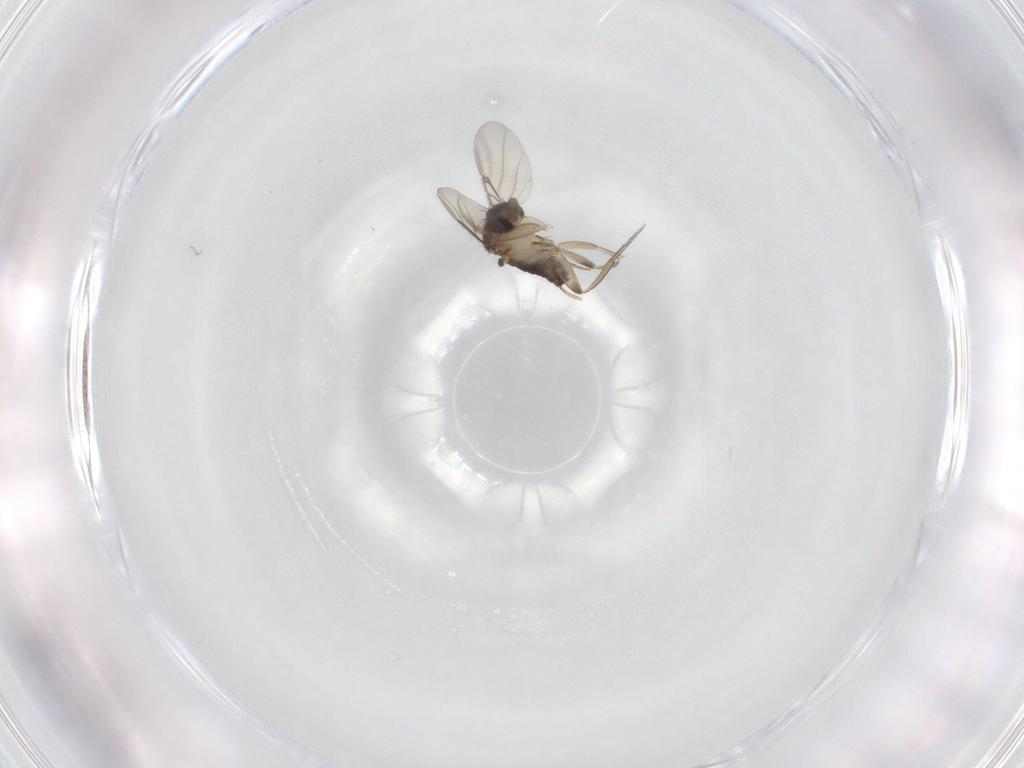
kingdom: Animalia
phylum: Arthropoda
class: Insecta
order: Diptera
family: Phoridae
